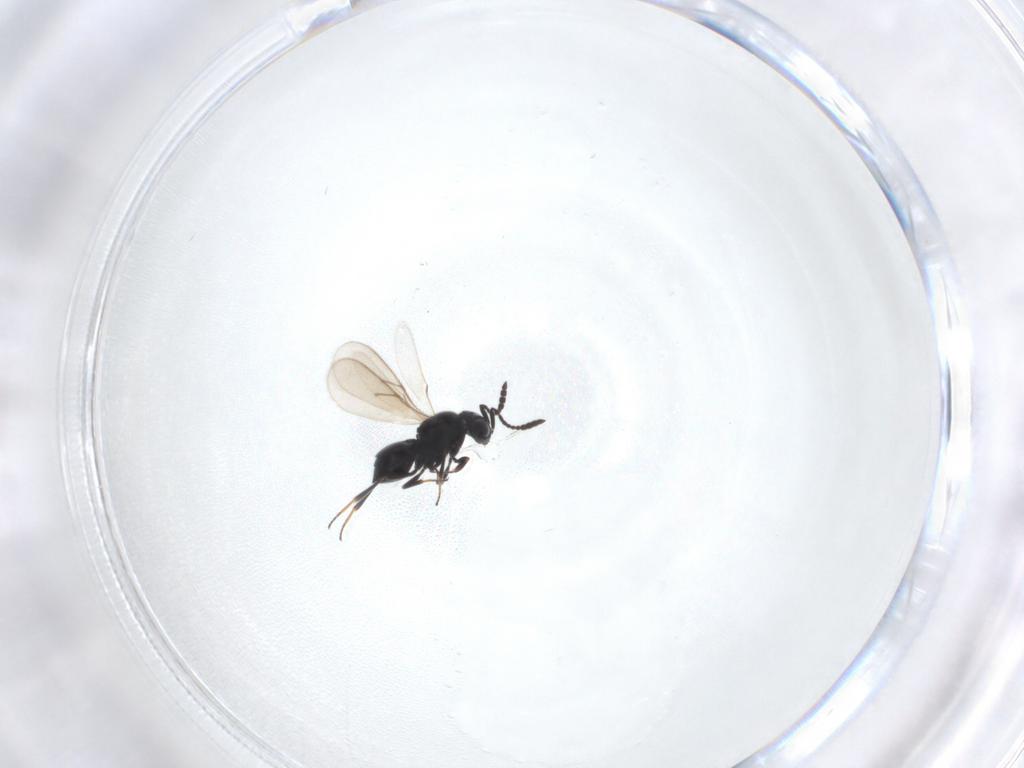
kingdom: Animalia
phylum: Arthropoda
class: Insecta
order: Hymenoptera
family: Scelionidae
